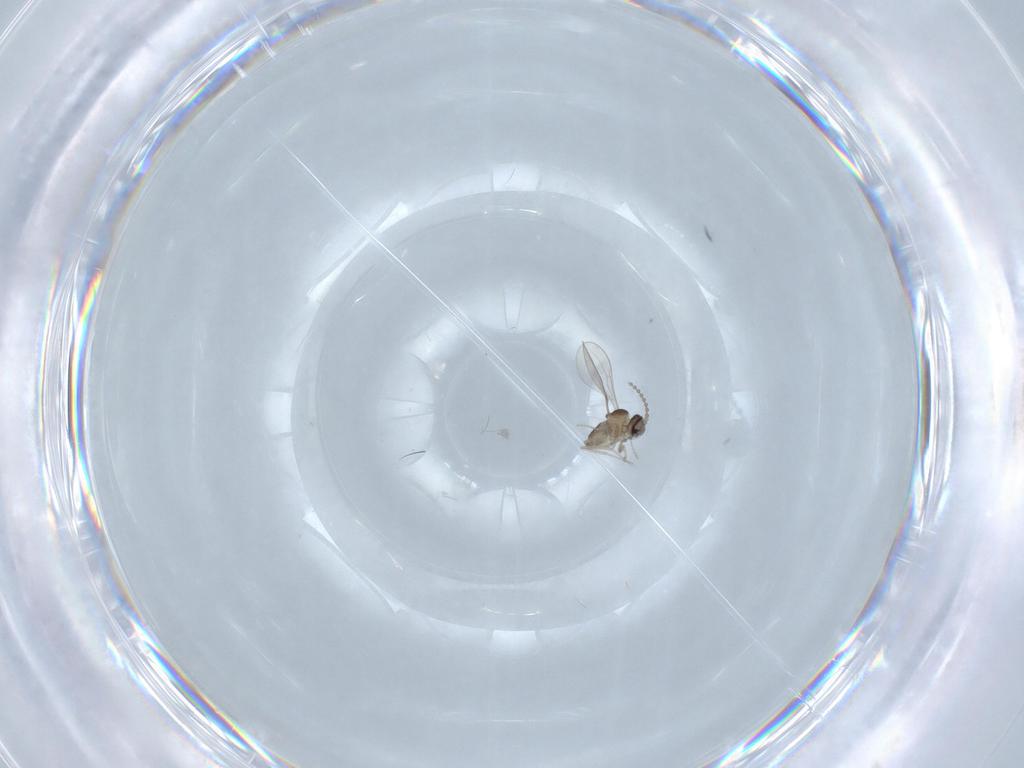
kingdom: Animalia
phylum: Arthropoda
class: Insecta
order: Diptera
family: Cecidomyiidae
